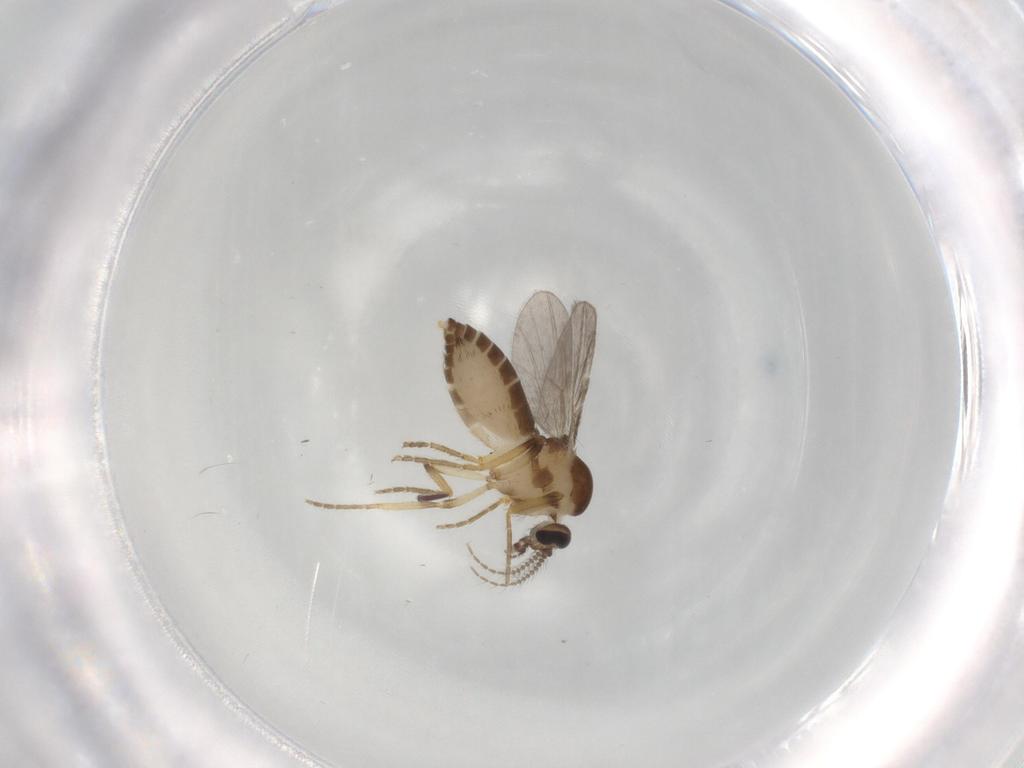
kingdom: Animalia
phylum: Arthropoda
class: Insecta
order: Diptera
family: Ceratopogonidae
